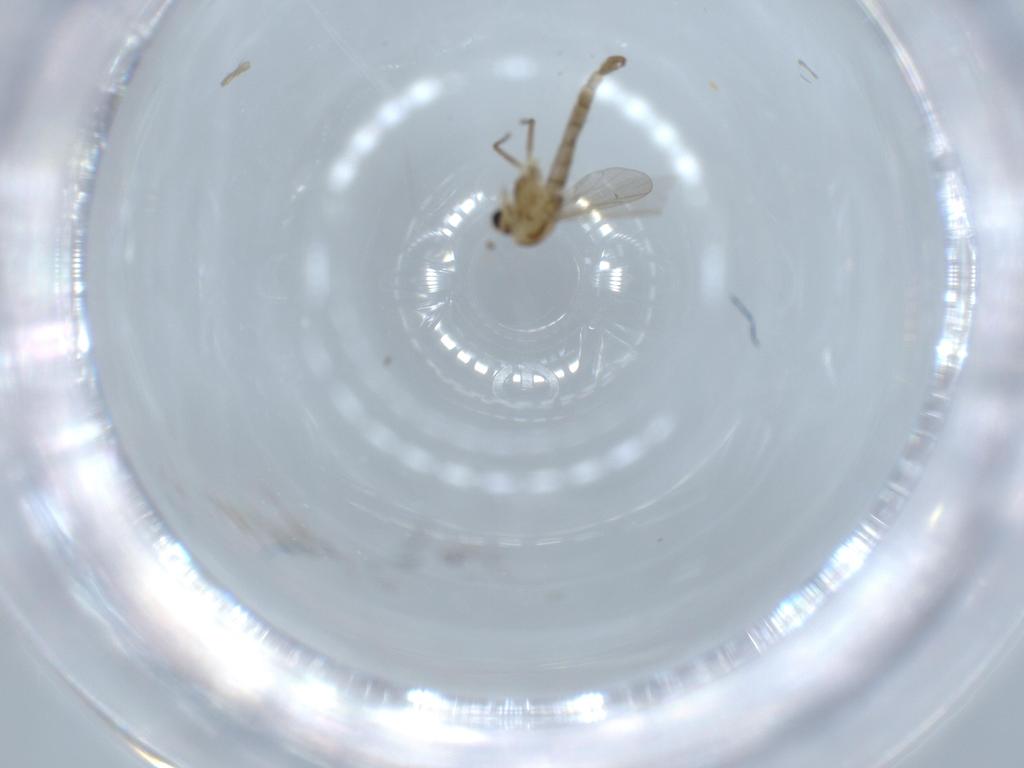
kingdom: Animalia
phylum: Arthropoda
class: Insecta
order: Diptera
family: Chironomidae
